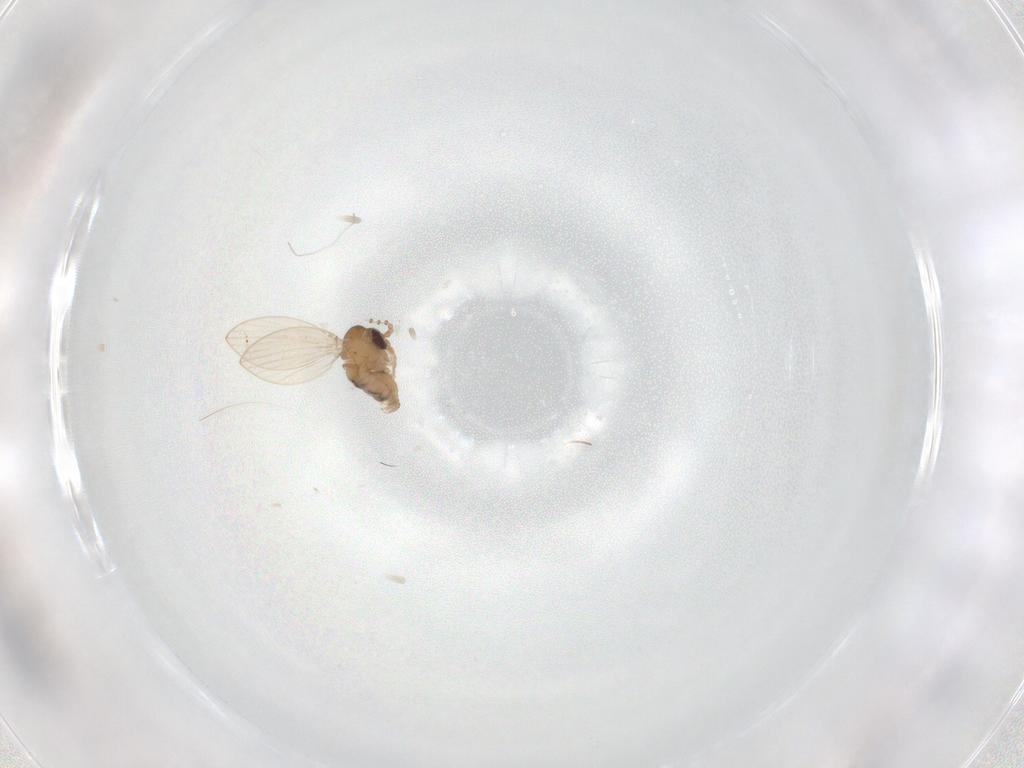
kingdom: Animalia
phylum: Arthropoda
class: Insecta
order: Diptera
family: Psychodidae
